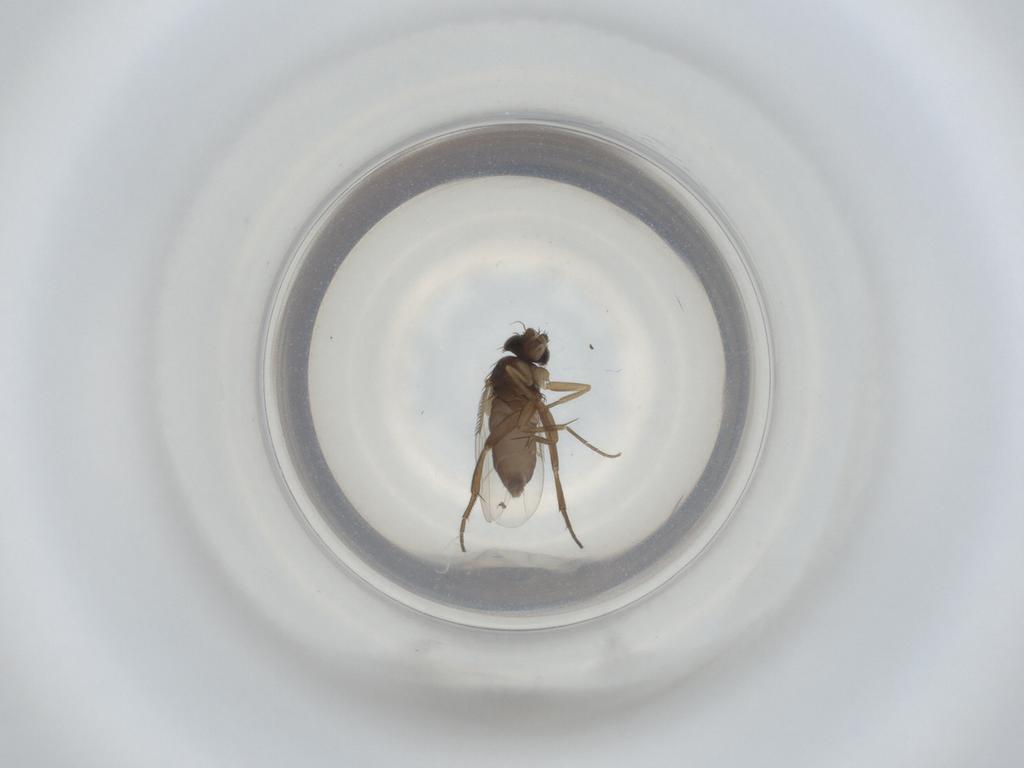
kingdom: Animalia
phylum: Arthropoda
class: Insecta
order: Diptera
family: Phoridae
